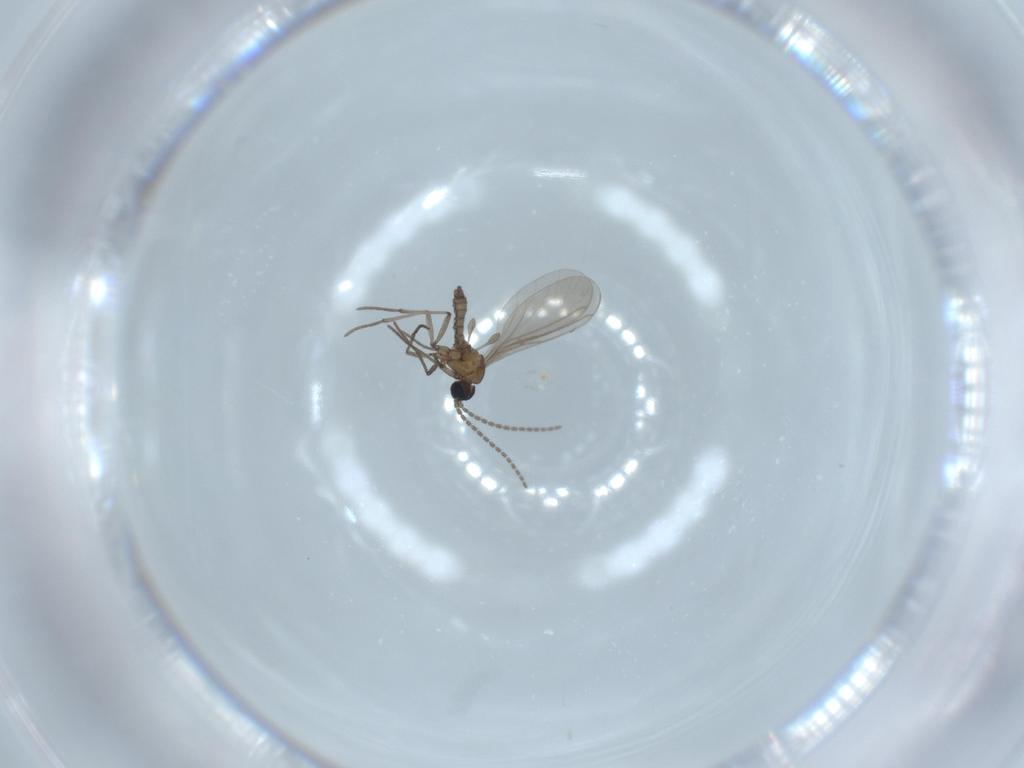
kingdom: Animalia
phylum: Arthropoda
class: Insecta
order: Diptera
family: Sciaridae
